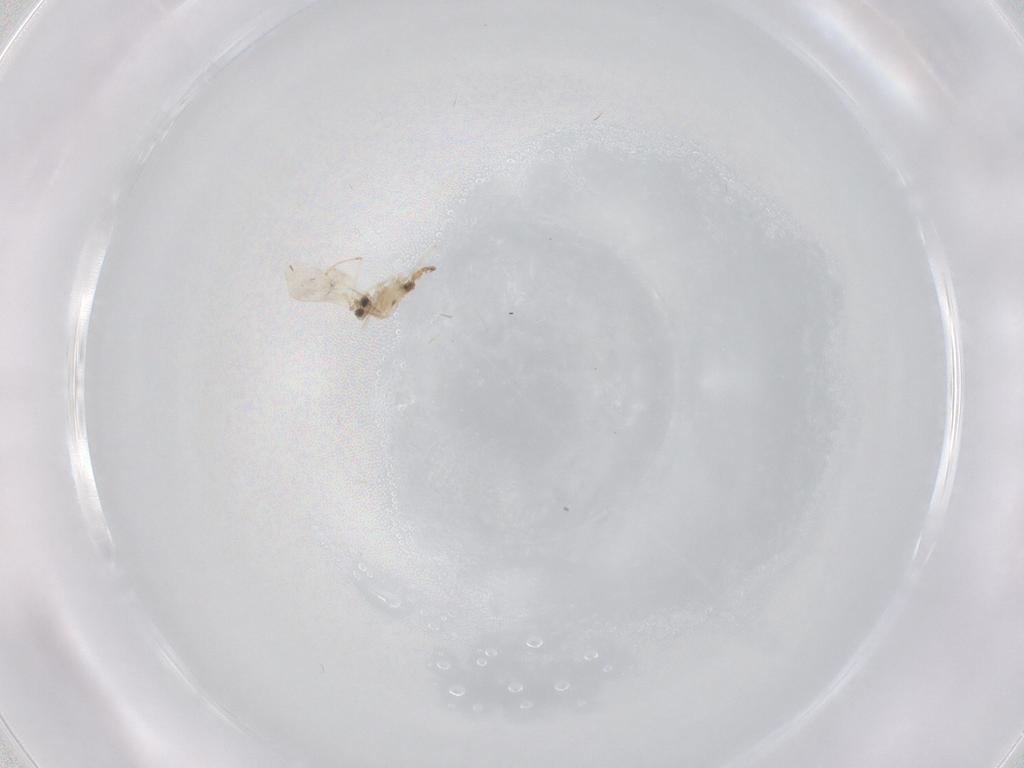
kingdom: Animalia
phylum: Arthropoda
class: Insecta
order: Diptera
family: Cecidomyiidae
